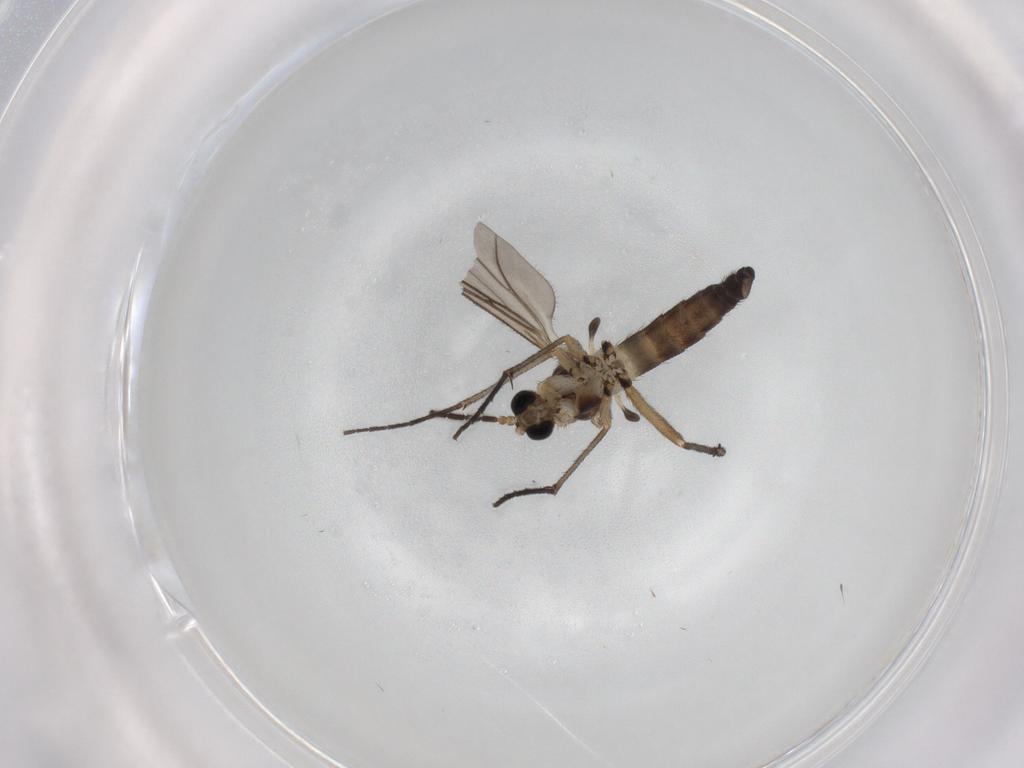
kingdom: Animalia
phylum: Arthropoda
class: Insecta
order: Diptera
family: Sciaridae
